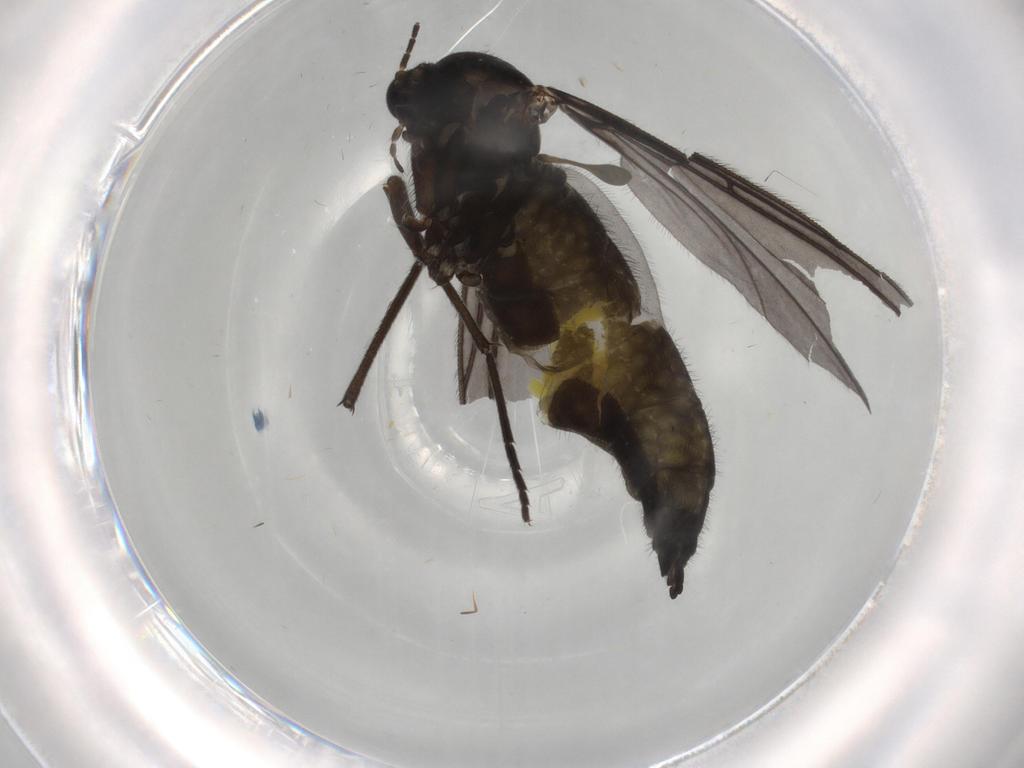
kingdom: Animalia
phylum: Arthropoda
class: Insecta
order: Diptera
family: Sciaridae
